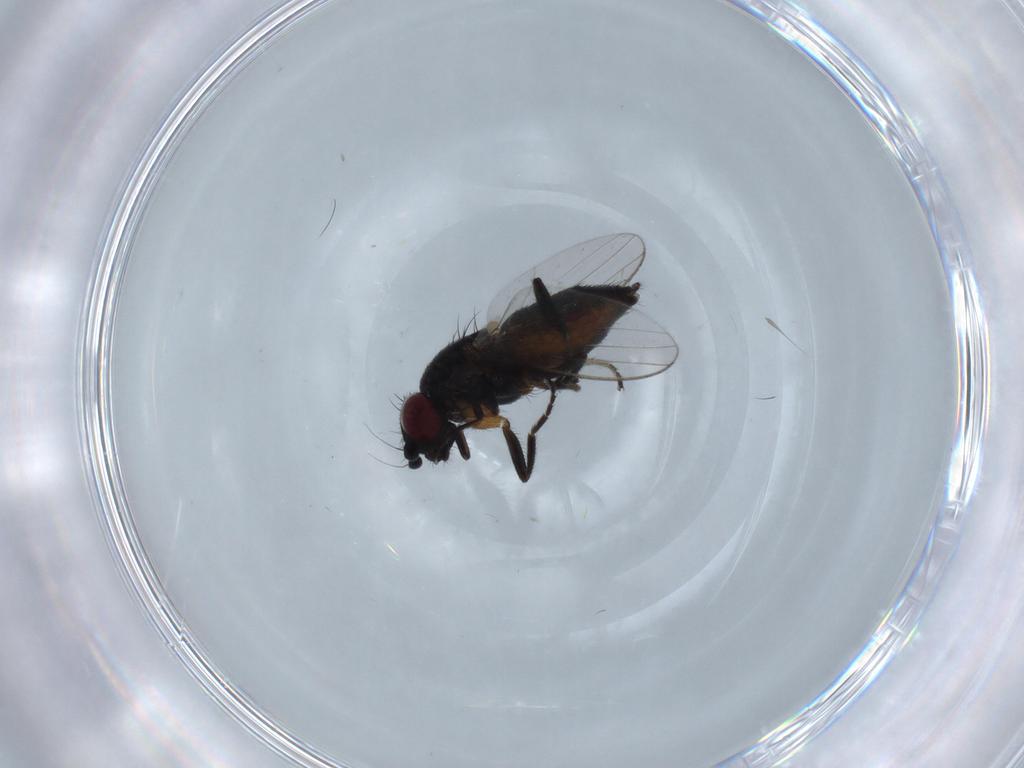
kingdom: Animalia
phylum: Arthropoda
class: Insecta
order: Diptera
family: Milichiidae
